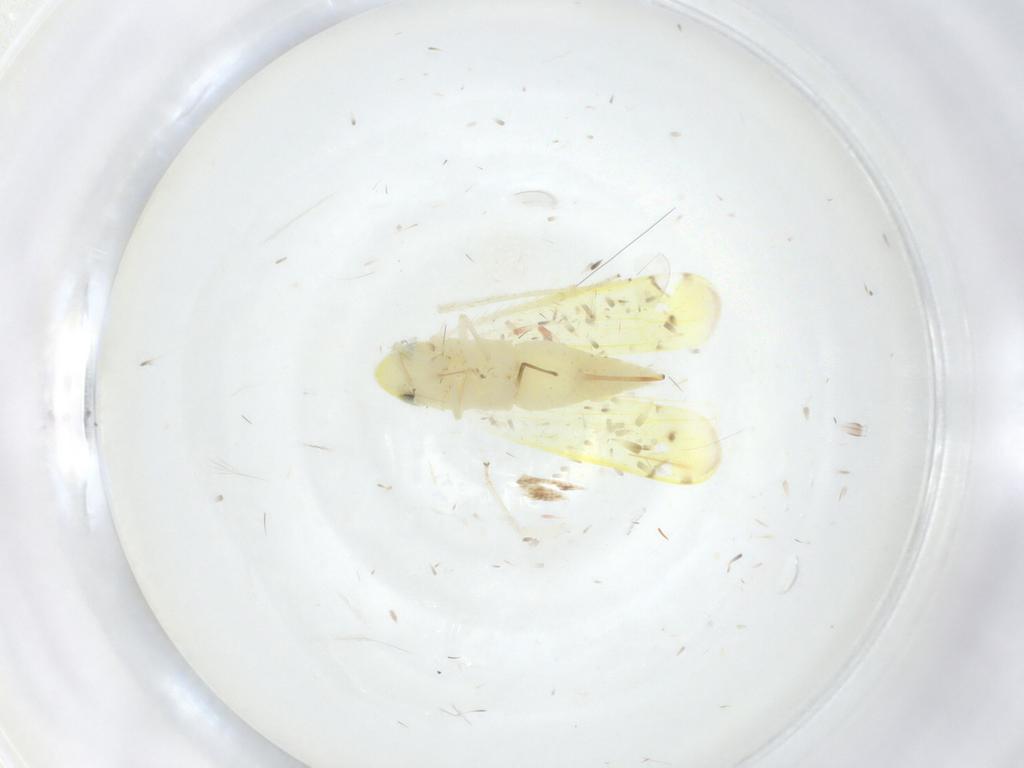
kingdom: Animalia
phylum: Arthropoda
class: Insecta
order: Hemiptera
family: Cicadellidae
